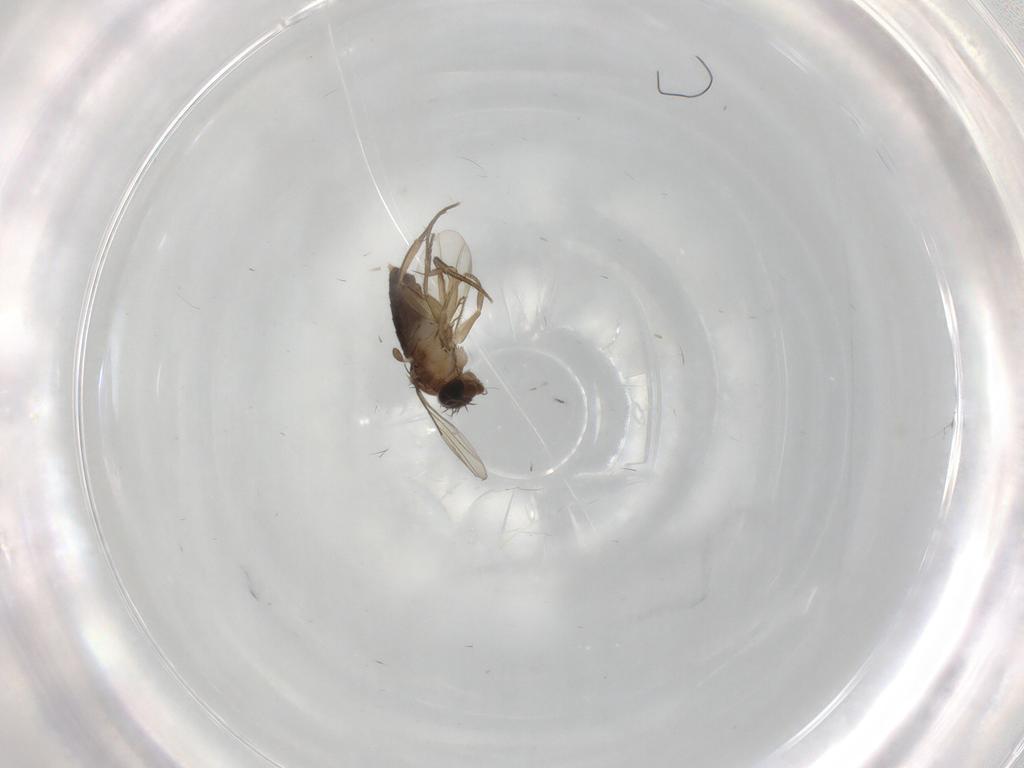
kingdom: Animalia
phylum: Arthropoda
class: Insecta
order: Diptera
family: Phoridae
